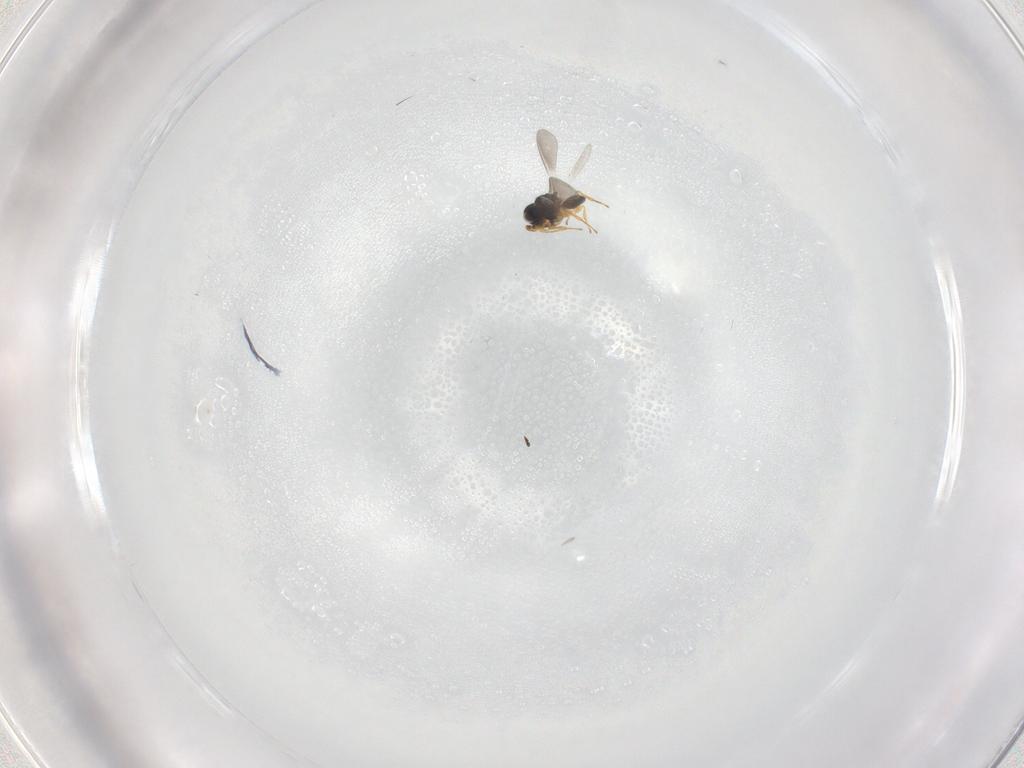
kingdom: Animalia
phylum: Arthropoda
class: Insecta
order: Hymenoptera
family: Platygastridae
